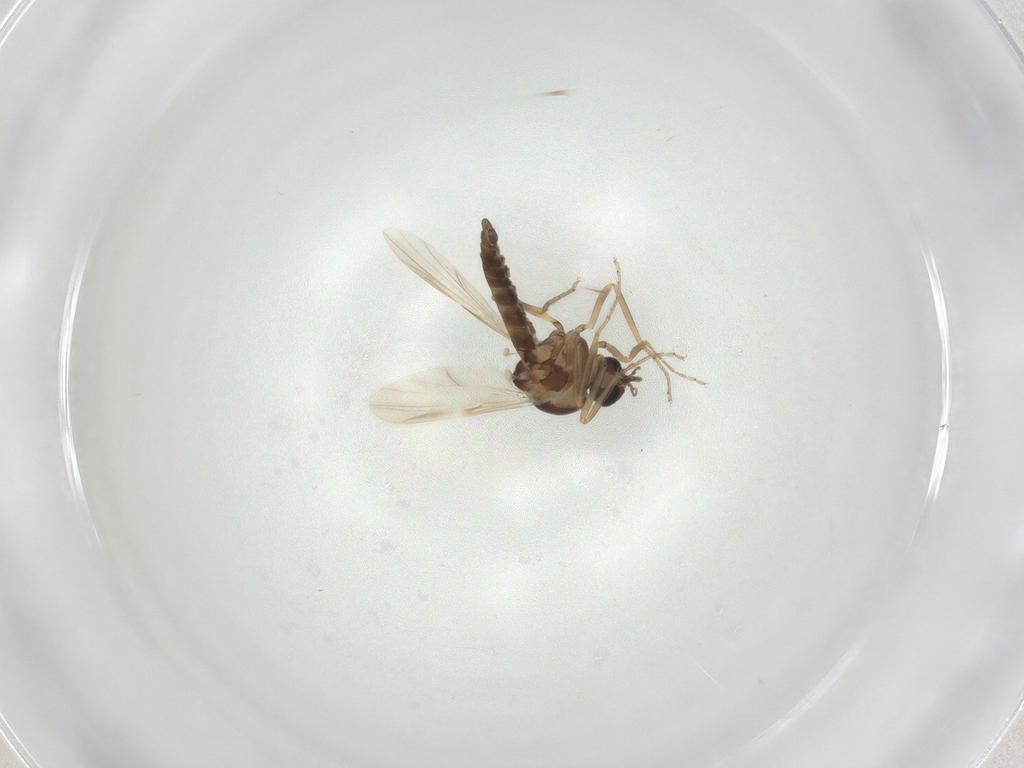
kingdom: Animalia
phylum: Arthropoda
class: Insecta
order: Diptera
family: Ceratopogonidae
